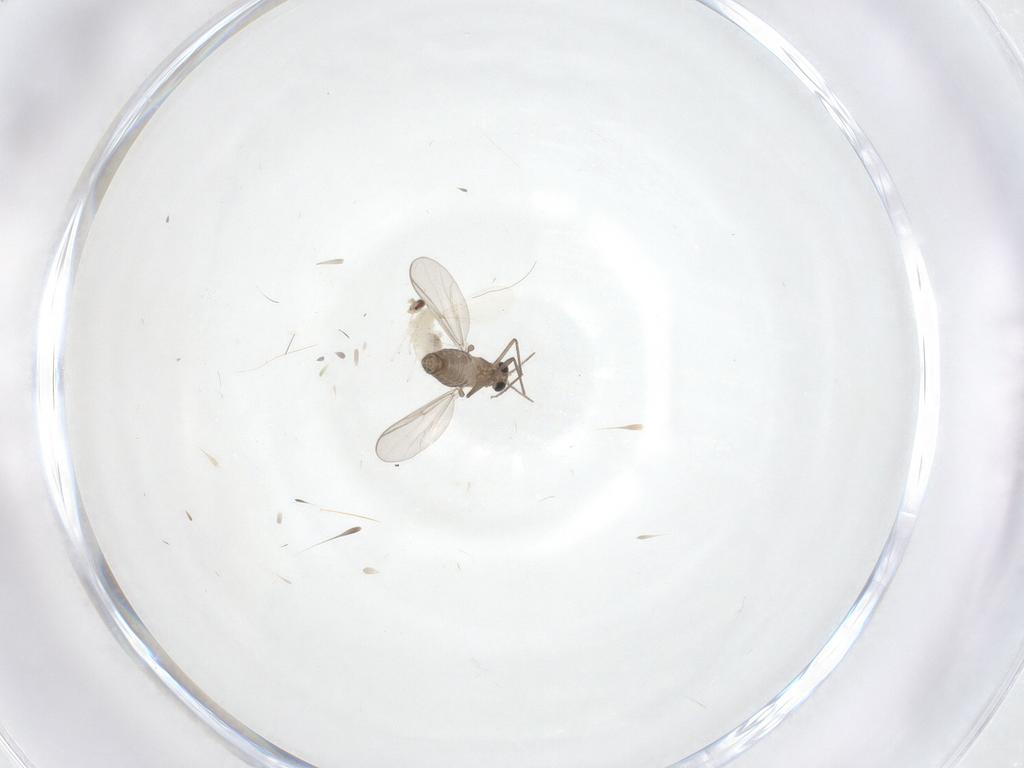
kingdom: Animalia
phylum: Arthropoda
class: Insecta
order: Diptera
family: Cecidomyiidae
